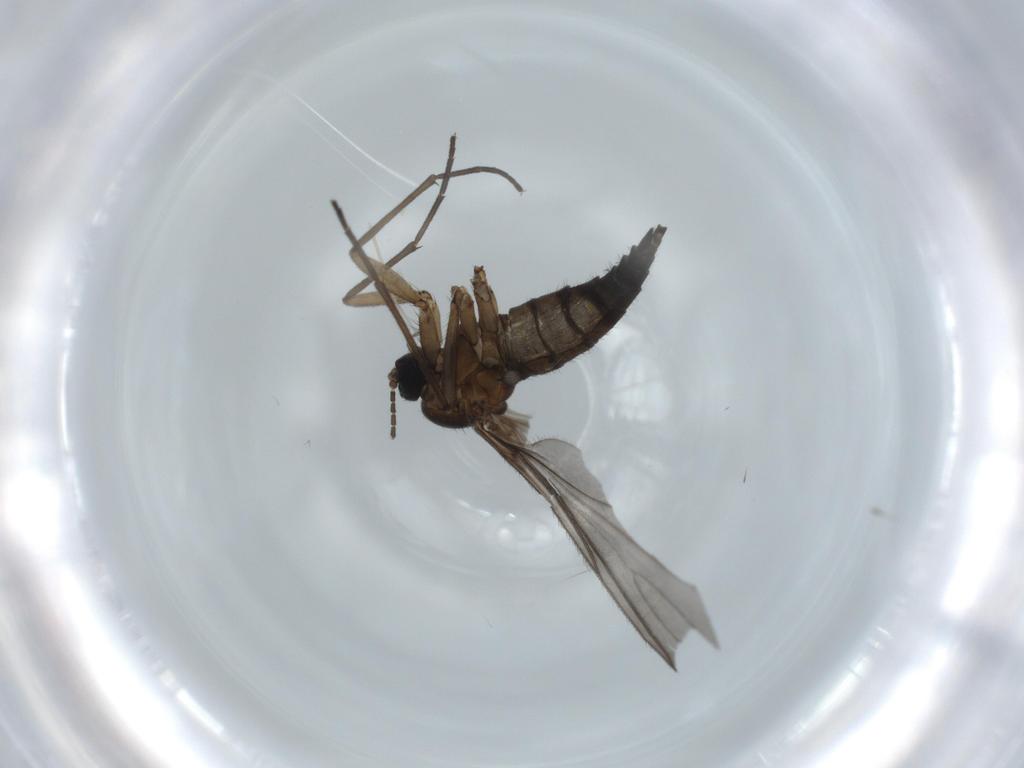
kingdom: Animalia
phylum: Arthropoda
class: Insecta
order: Diptera
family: Sciaridae
